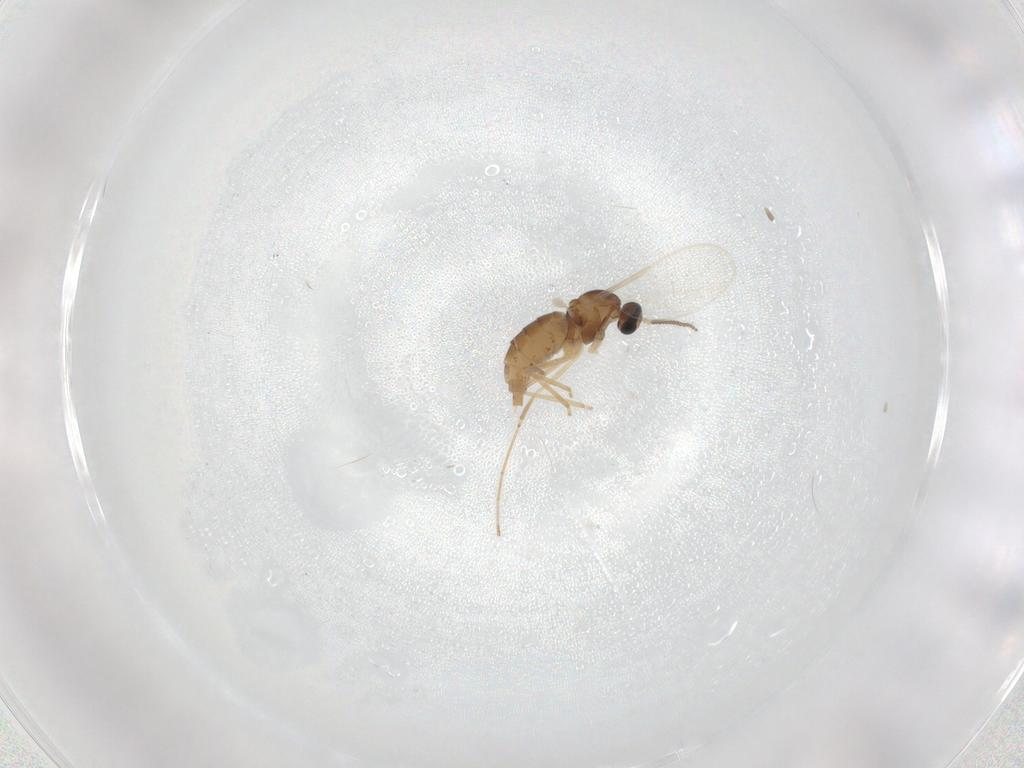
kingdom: Animalia
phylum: Arthropoda
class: Insecta
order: Diptera
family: Cecidomyiidae
